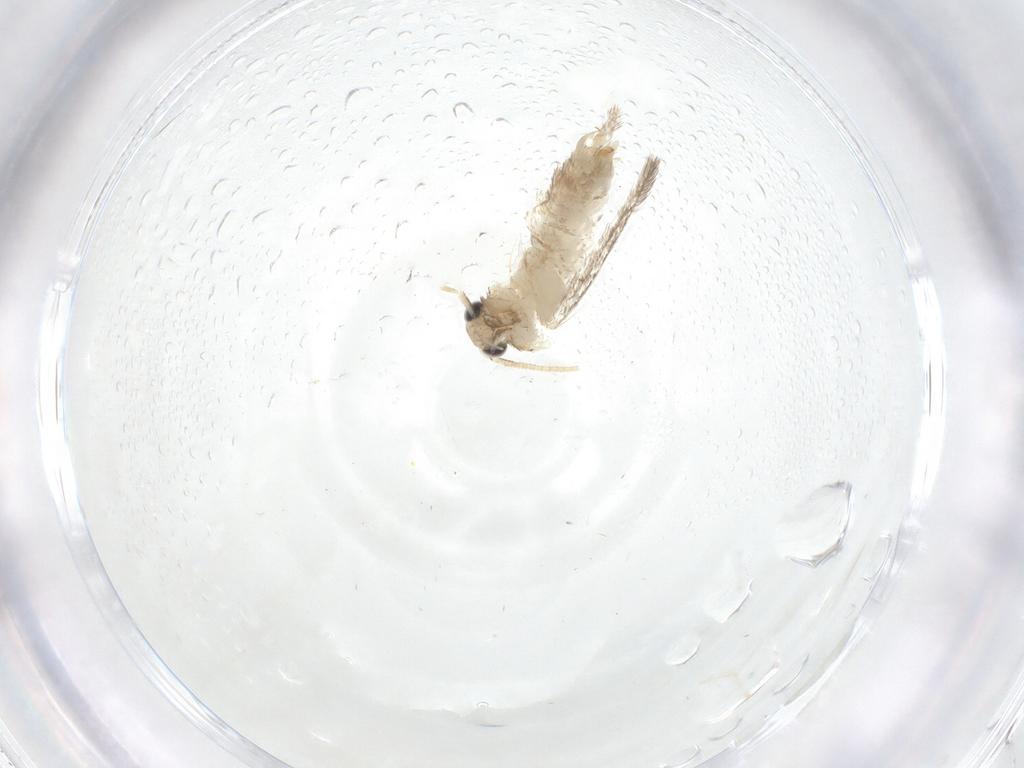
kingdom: Animalia
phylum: Arthropoda
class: Insecta
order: Lepidoptera
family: Dryadaulidae
